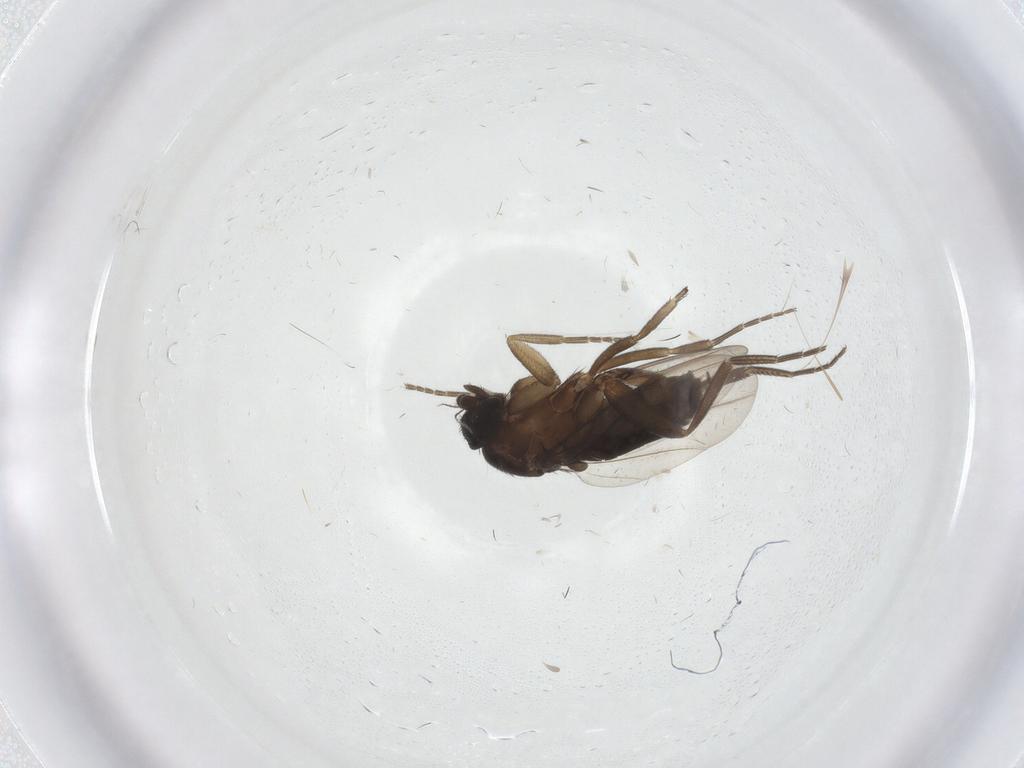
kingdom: Animalia
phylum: Arthropoda
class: Insecta
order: Diptera
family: Phoridae
